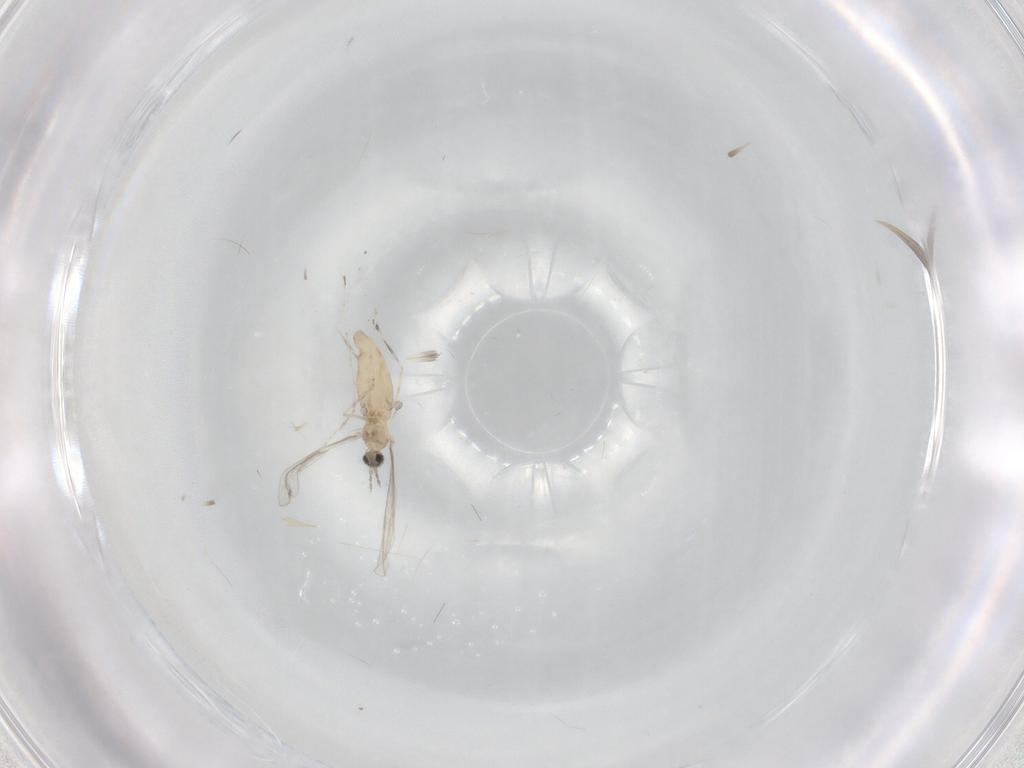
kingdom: Animalia
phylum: Arthropoda
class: Insecta
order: Diptera
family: Cecidomyiidae
